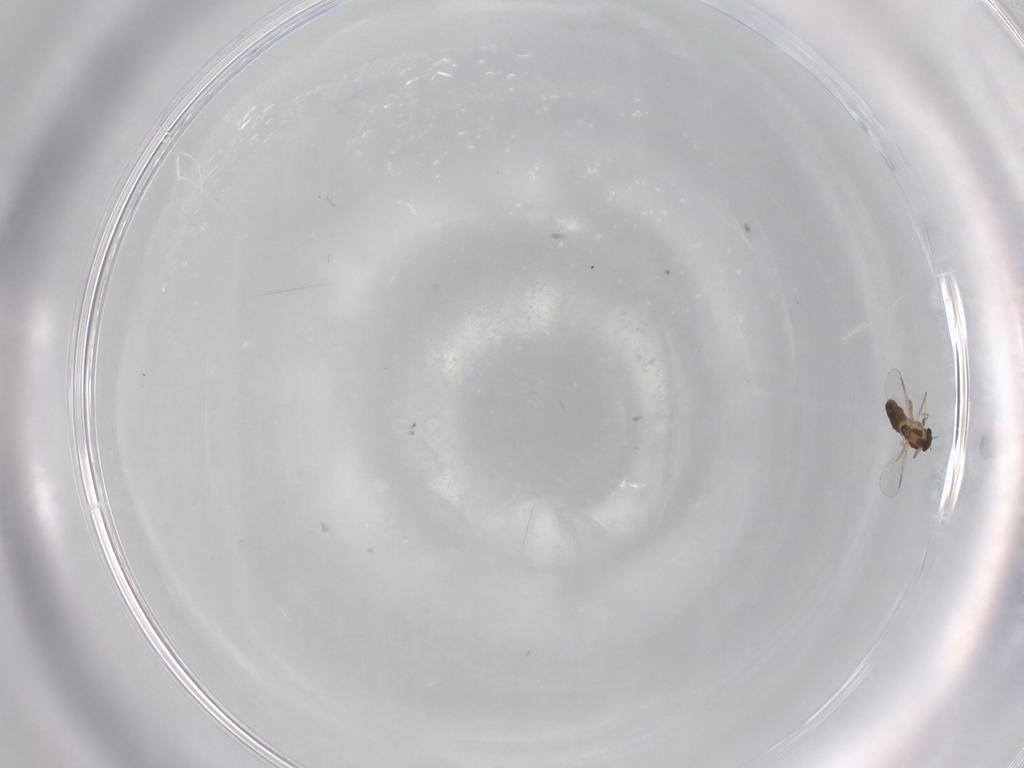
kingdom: Animalia
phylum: Arthropoda
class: Insecta
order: Diptera
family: Chironomidae
